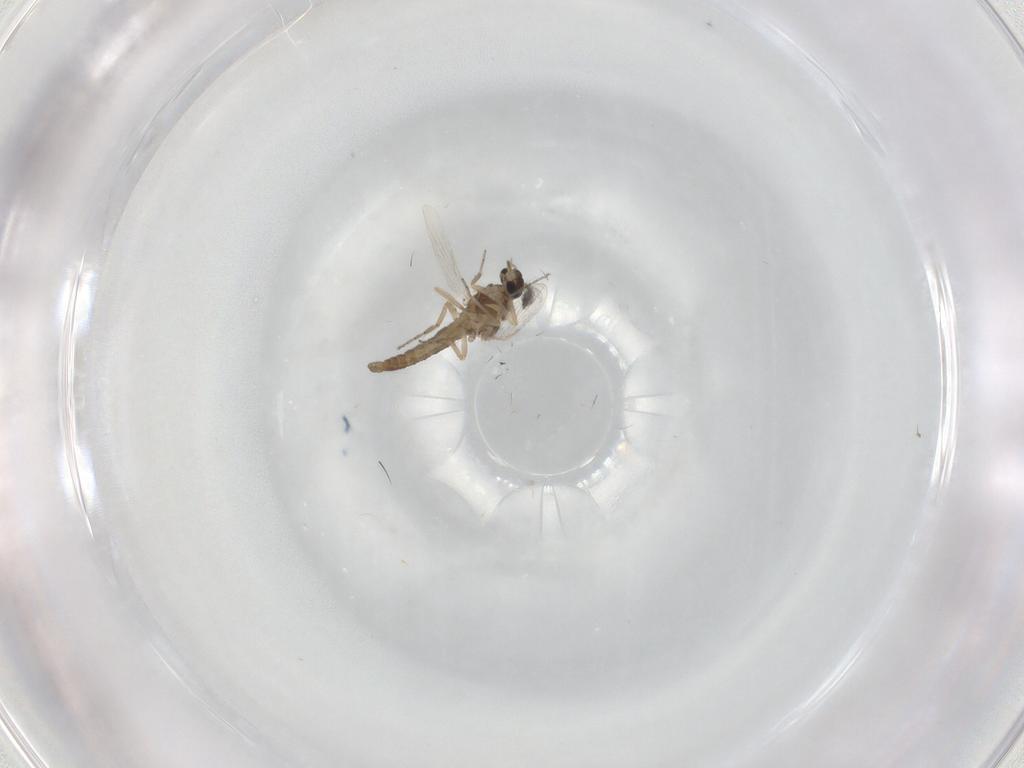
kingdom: Animalia
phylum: Arthropoda
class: Insecta
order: Diptera
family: Ceratopogonidae
